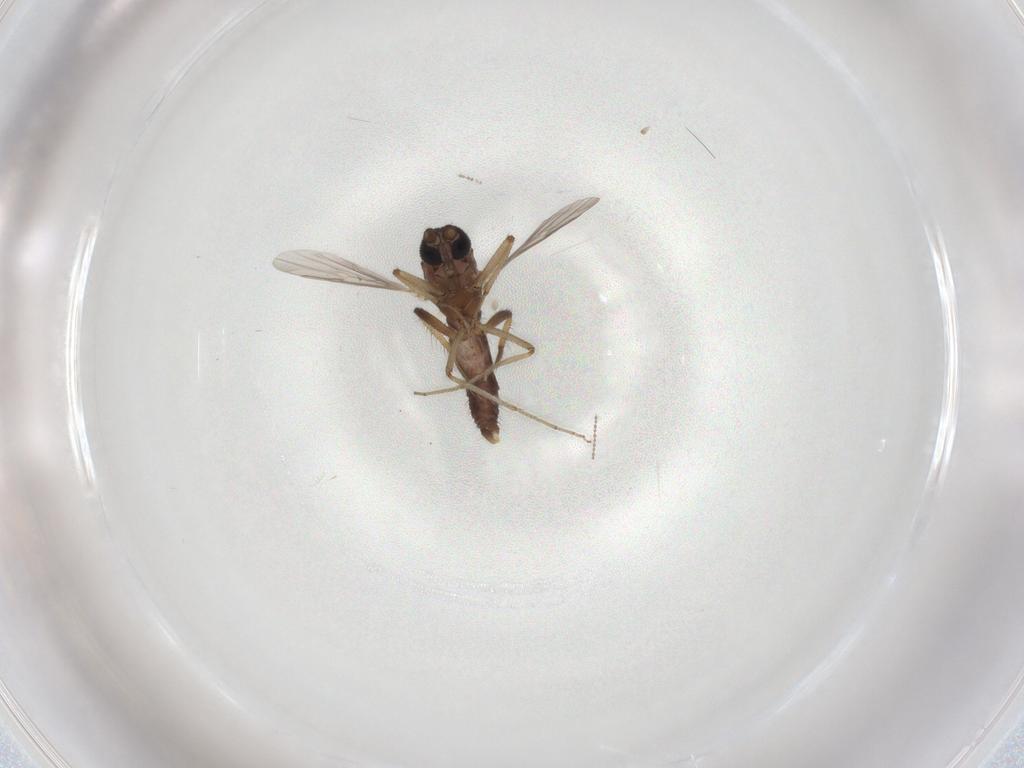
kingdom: Animalia
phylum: Arthropoda
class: Insecta
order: Diptera
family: Ceratopogonidae
